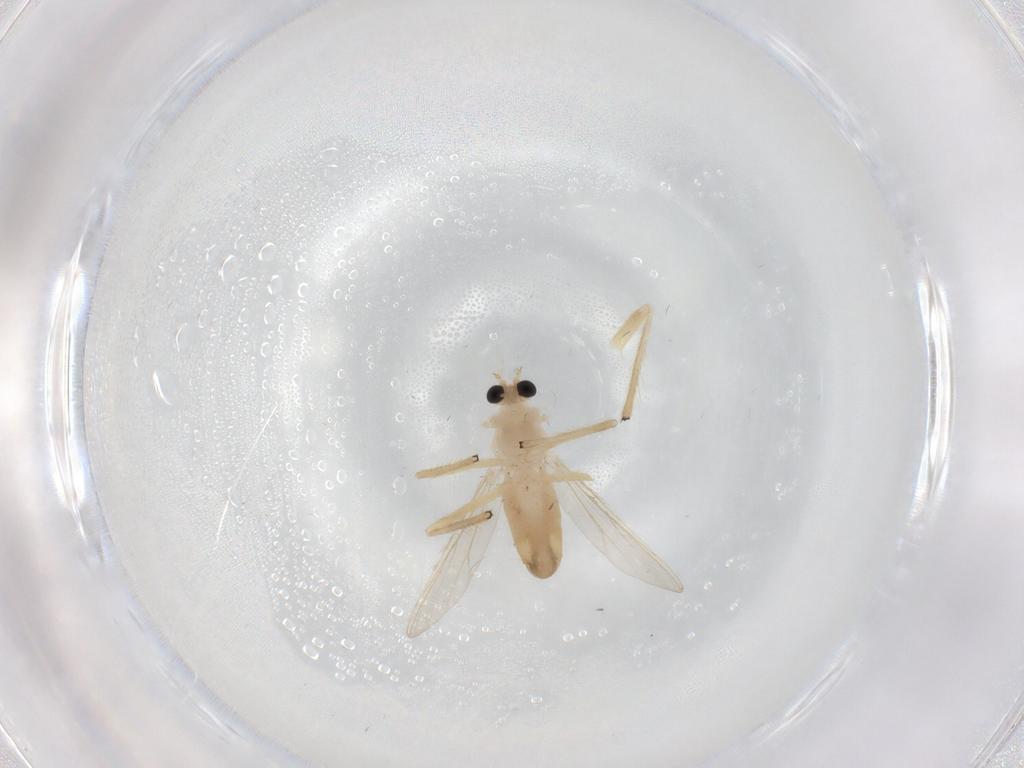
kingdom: Animalia
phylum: Arthropoda
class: Insecta
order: Diptera
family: Chironomidae
